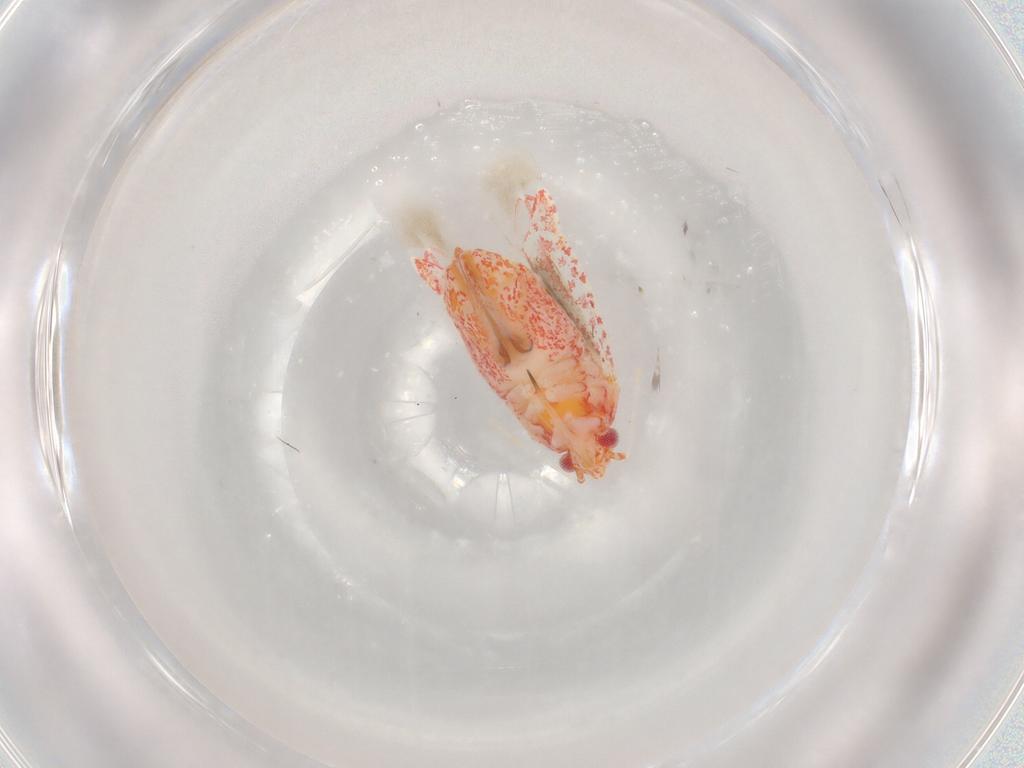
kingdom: Animalia
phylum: Arthropoda
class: Insecta
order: Hemiptera
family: Miridae
